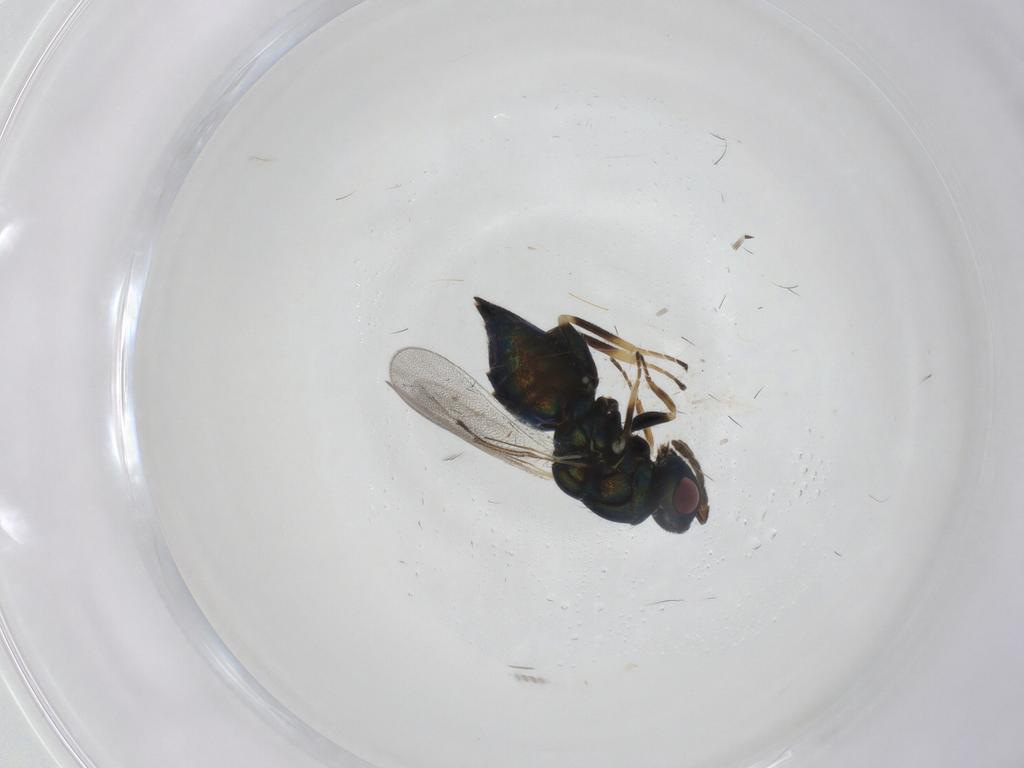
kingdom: Animalia
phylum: Arthropoda
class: Insecta
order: Hymenoptera
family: Eulophidae
